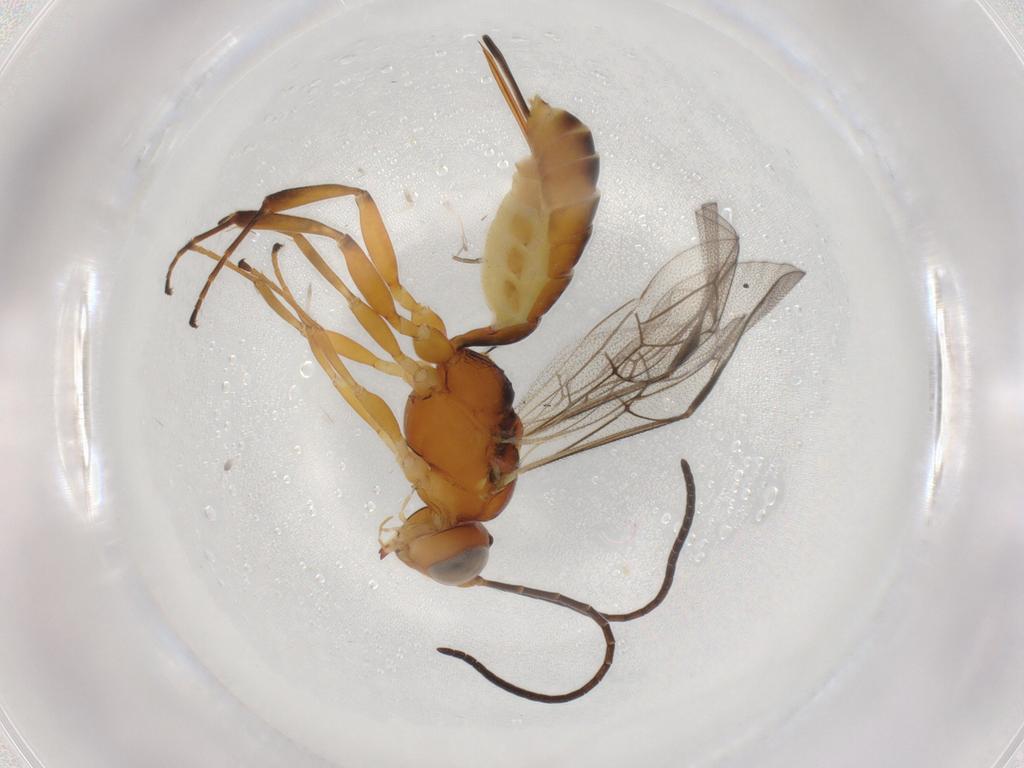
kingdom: Animalia
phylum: Arthropoda
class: Insecta
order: Hymenoptera
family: Ichneumonidae
